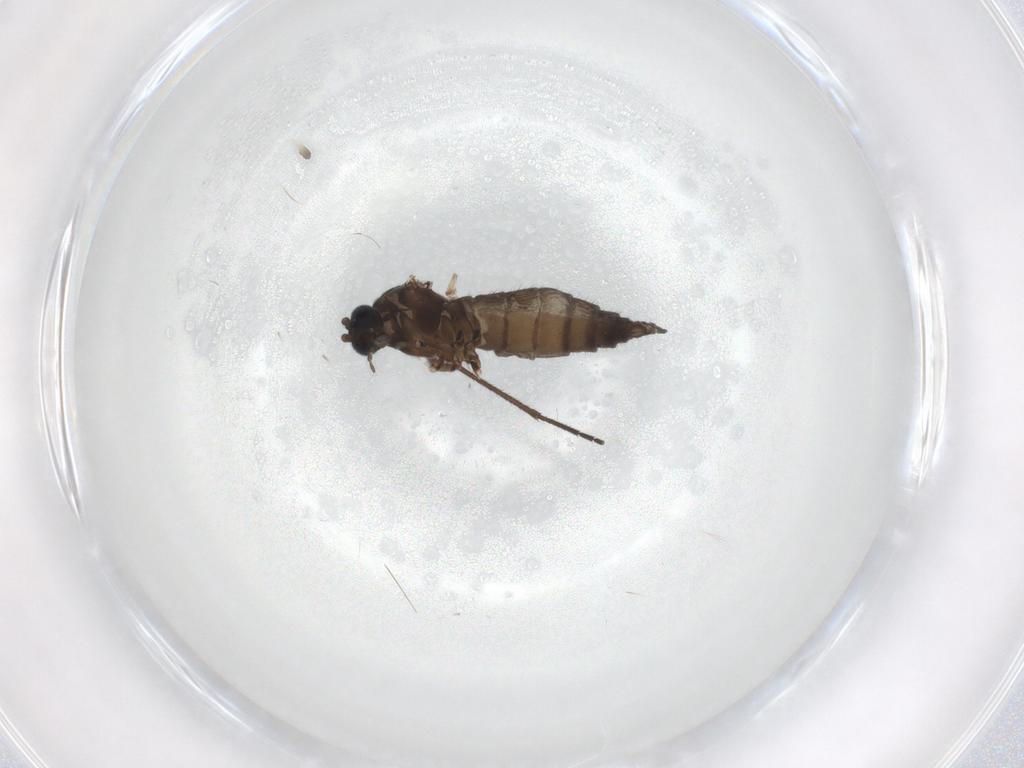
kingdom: Animalia
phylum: Arthropoda
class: Insecta
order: Diptera
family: Sciaridae
